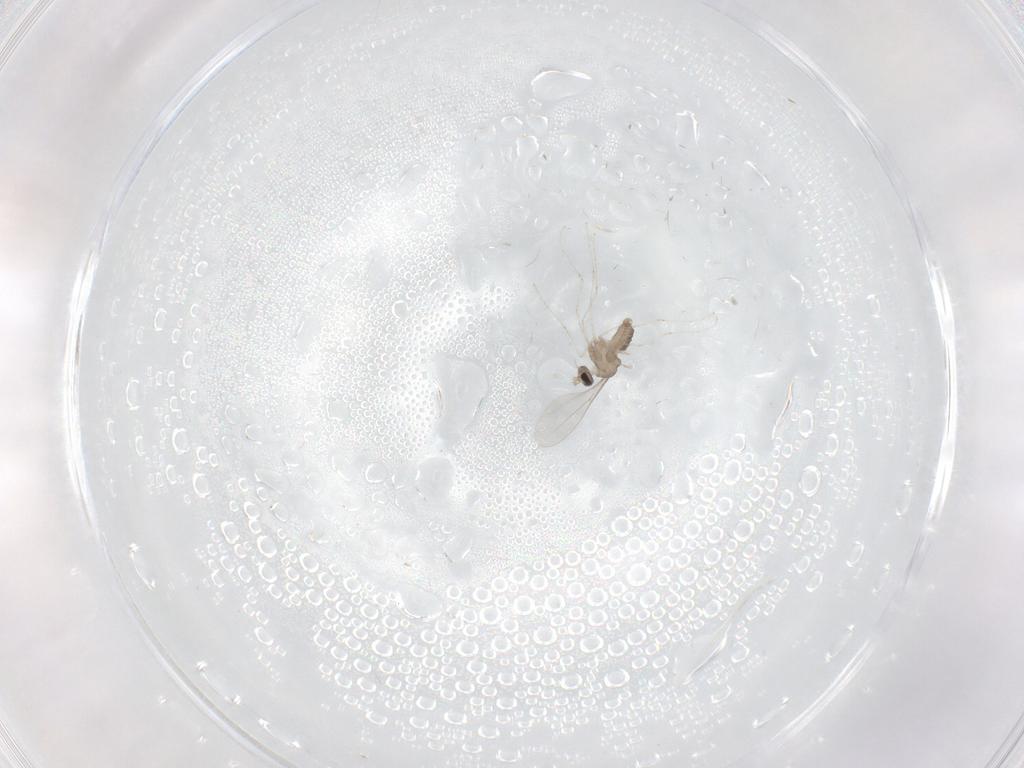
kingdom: Animalia
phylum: Arthropoda
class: Insecta
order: Diptera
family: Cecidomyiidae
